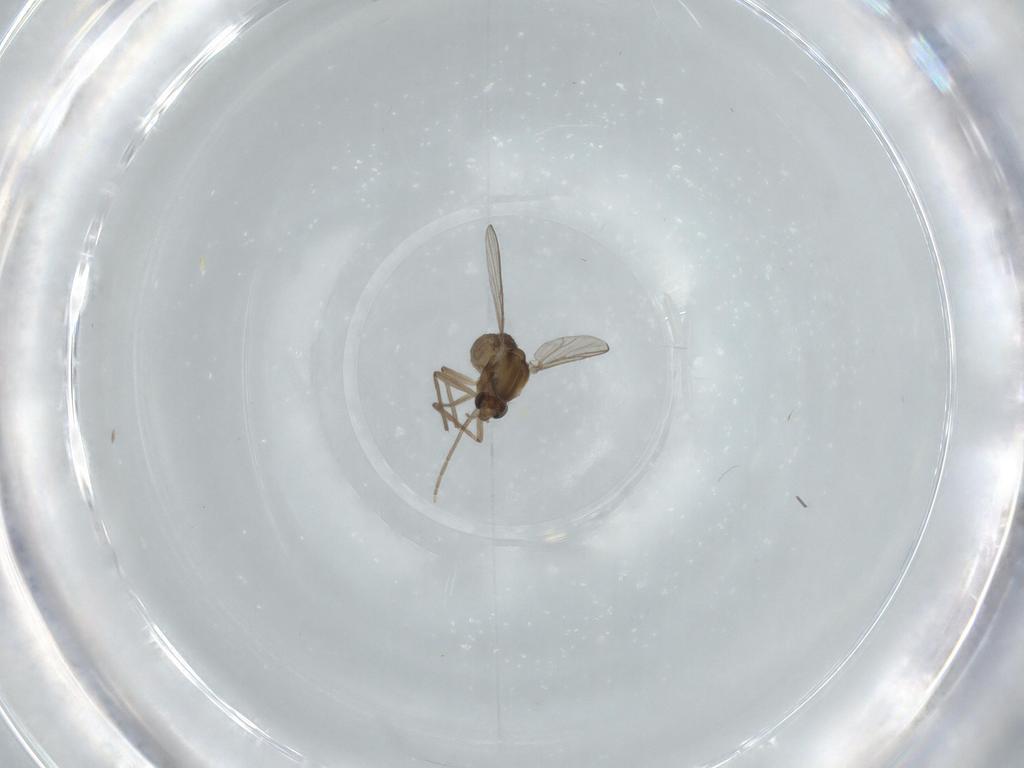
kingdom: Animalia
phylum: Arthropoda
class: Insecta
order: Diptera
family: Chironomidae
